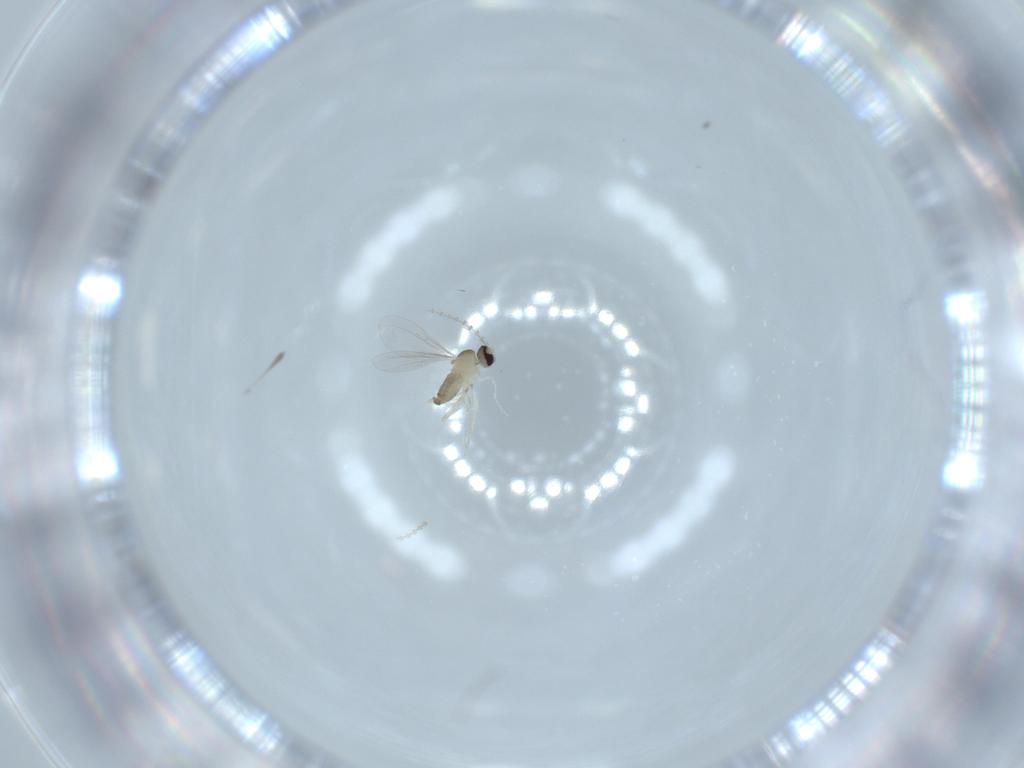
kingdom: Animalia
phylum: Arthropoda
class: Insecta
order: Diptera
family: Cecidomyiidae
